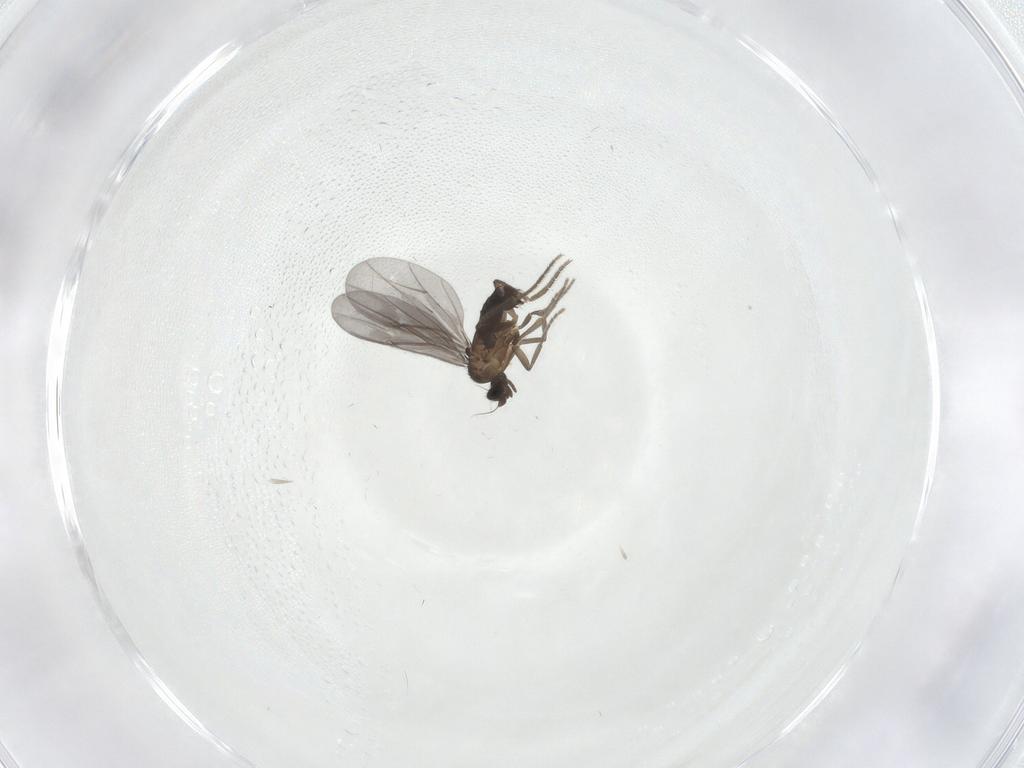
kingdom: Animalia
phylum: Arthropoda
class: Insecta
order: Diptera
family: Phoridae
